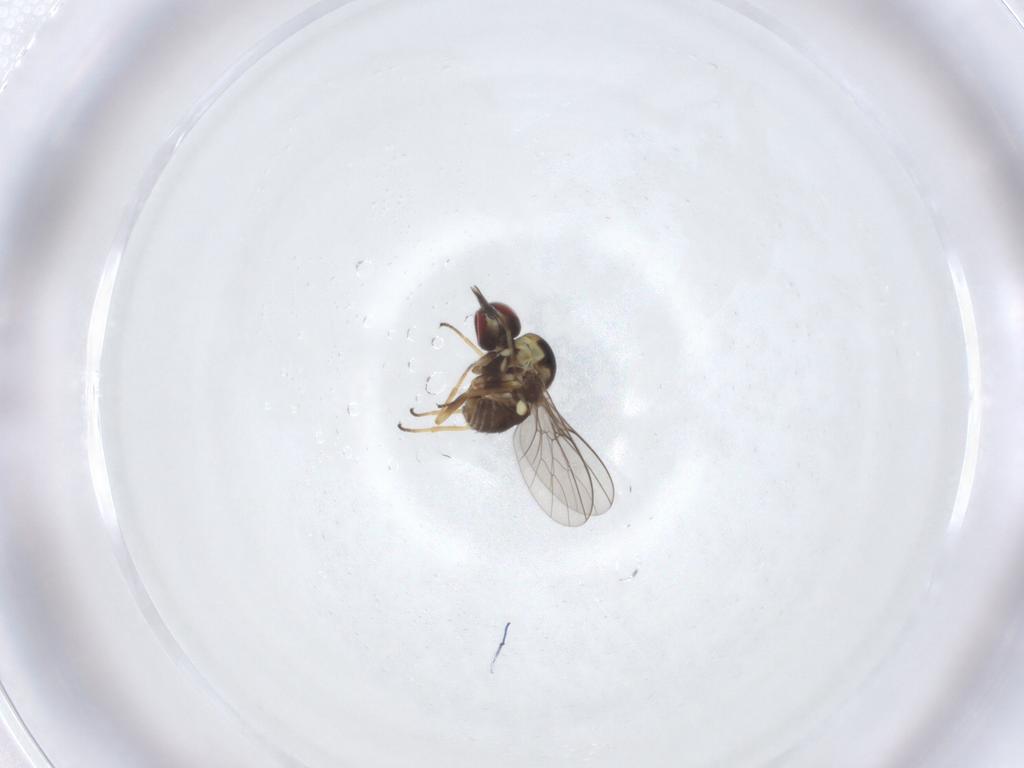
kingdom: Animalia
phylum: Arthropoda
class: Insecta
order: Diptera
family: Bombyliidae
